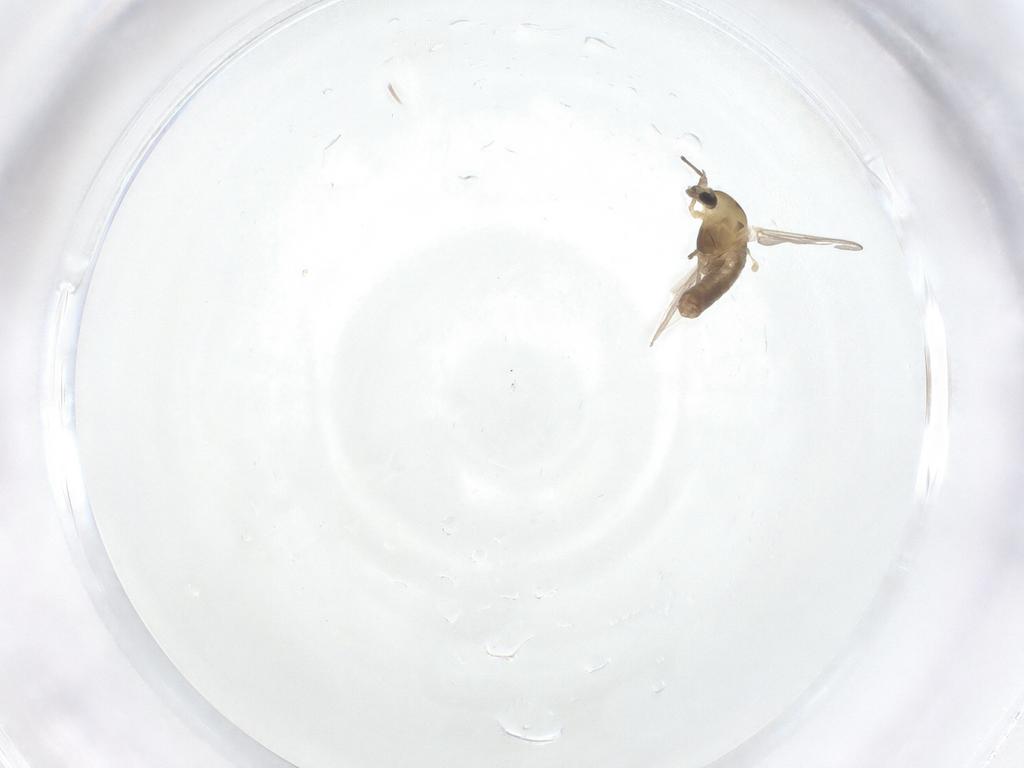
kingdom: Animalia
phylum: Arthropoda
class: Insecta
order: Diptera
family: Chironomidae
